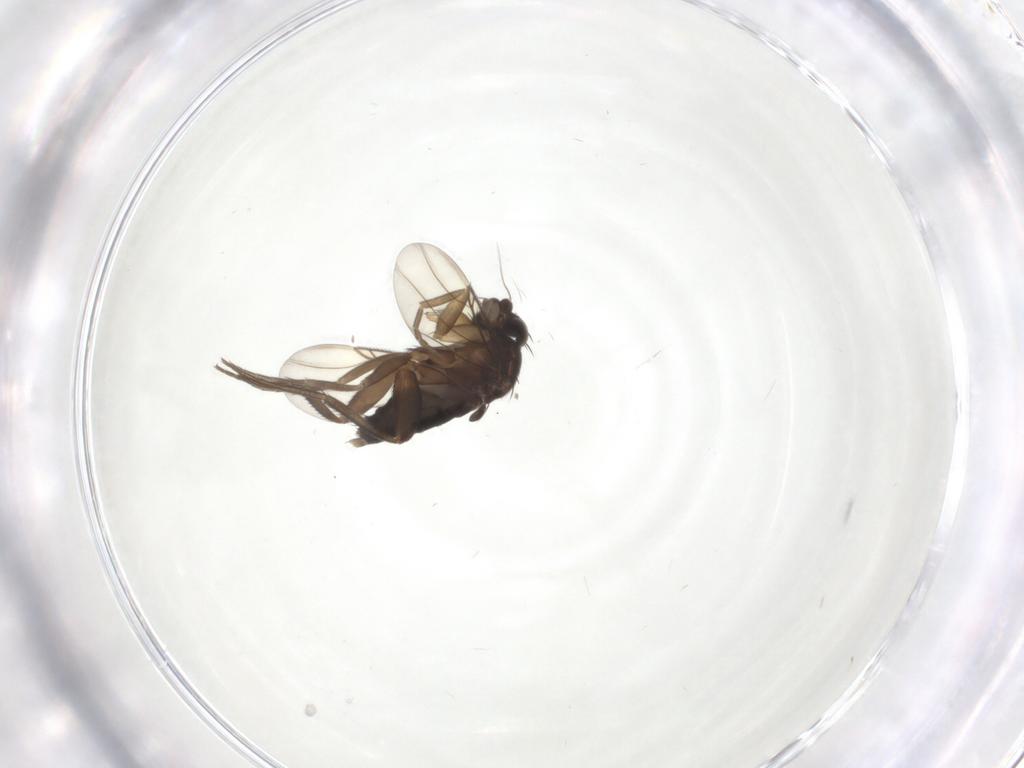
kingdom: Animalia
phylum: Arthropoda
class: Insecta
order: Diptera
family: Phoridae
